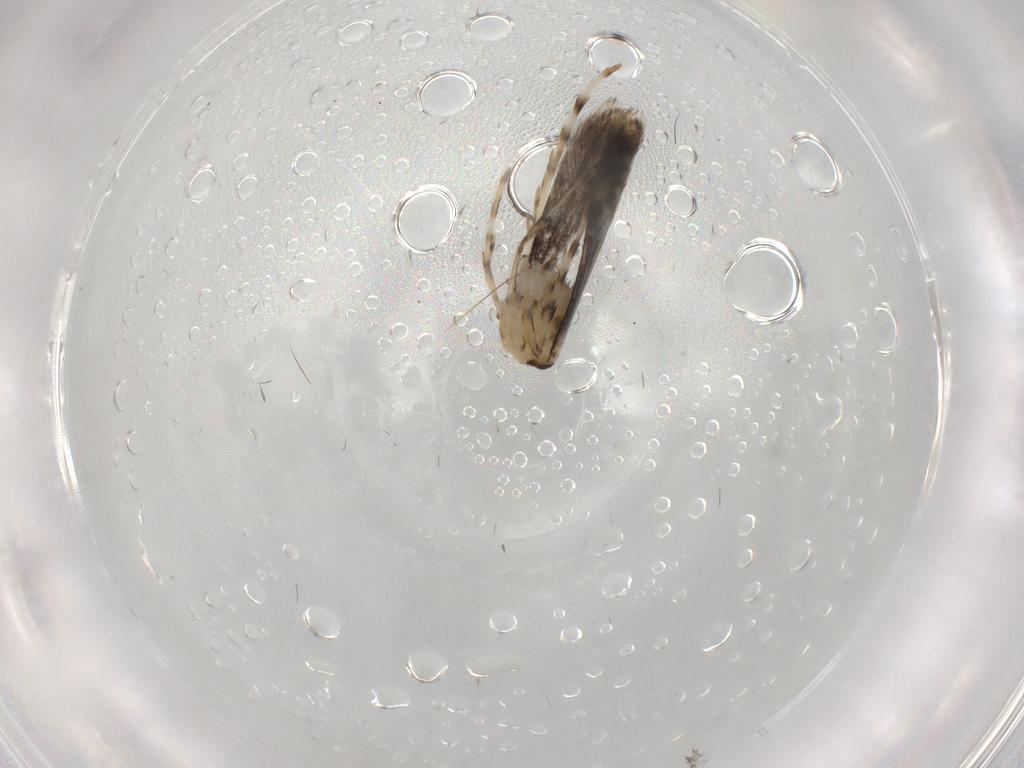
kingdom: Animalia
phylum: Arthropoda
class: Insecta
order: Lepidoptera
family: Gracillariidae
